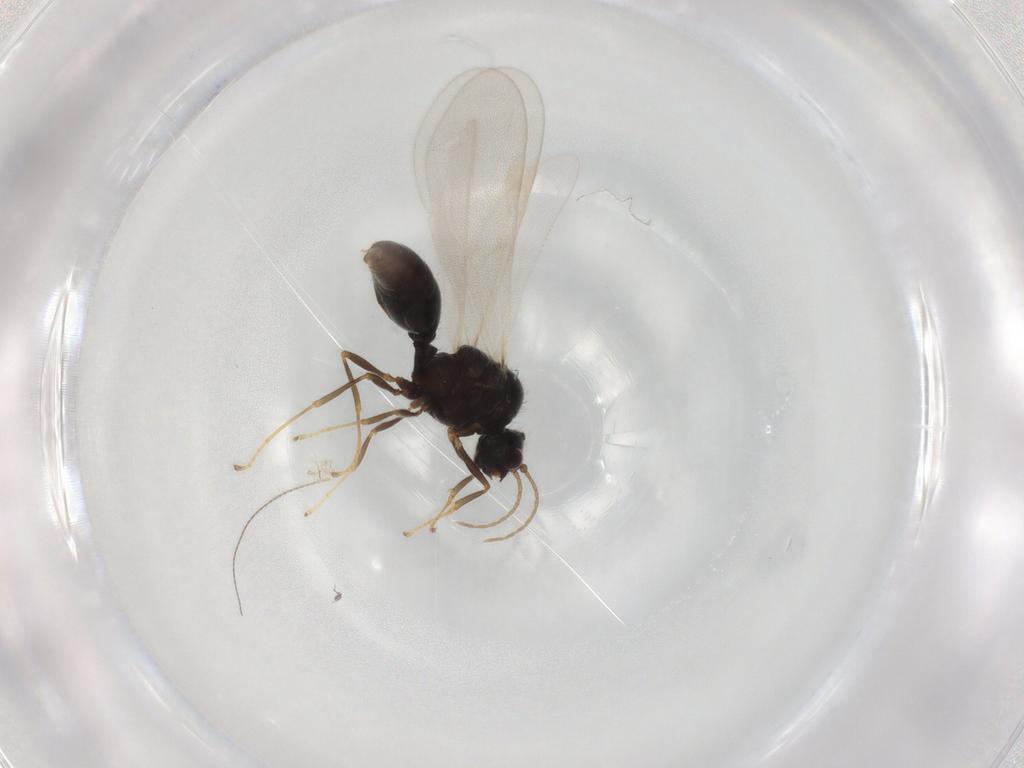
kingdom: Animalia
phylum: Arthropoda
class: Insecta
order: Hymenoptera
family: Formicidae
